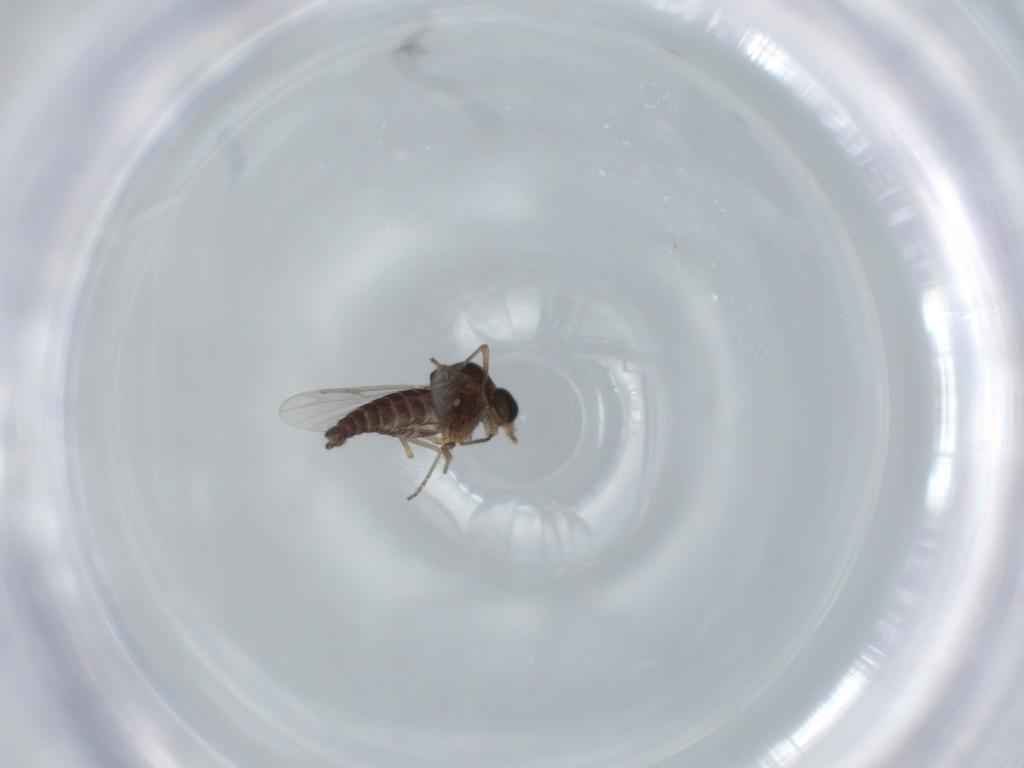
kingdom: Animalia
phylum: Arthropoda
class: Insecta
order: Diptera
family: Ceratopogonidae
